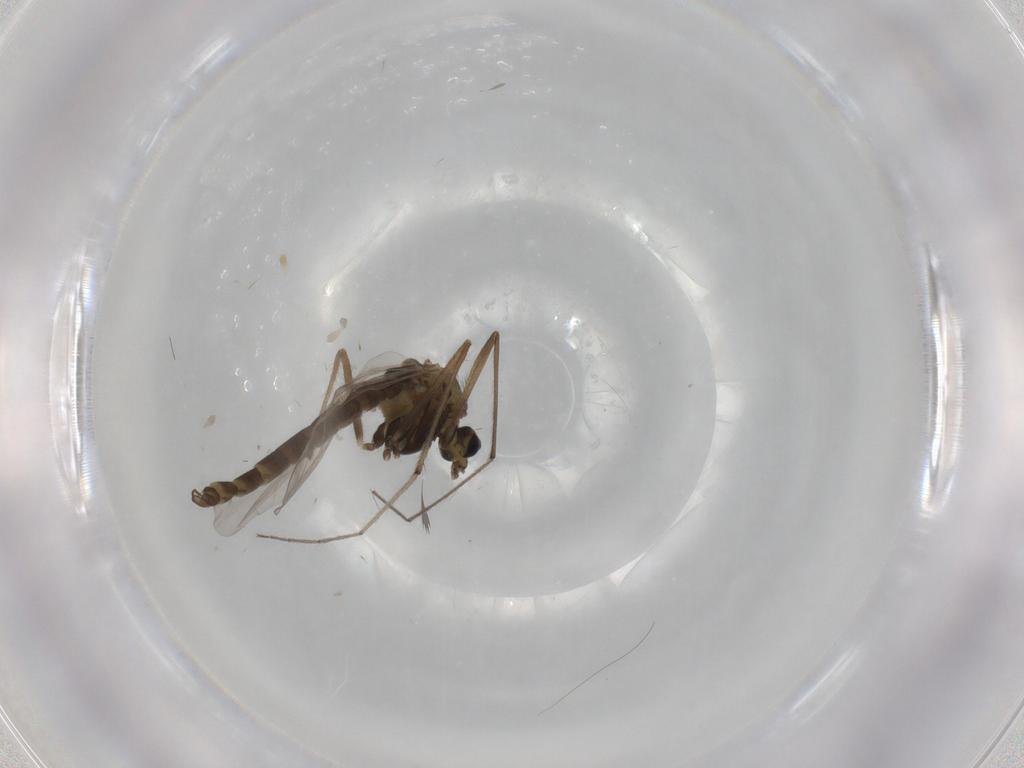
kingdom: Animalia
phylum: Arthropoda
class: Insecta
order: Diptera
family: Chironomidae
